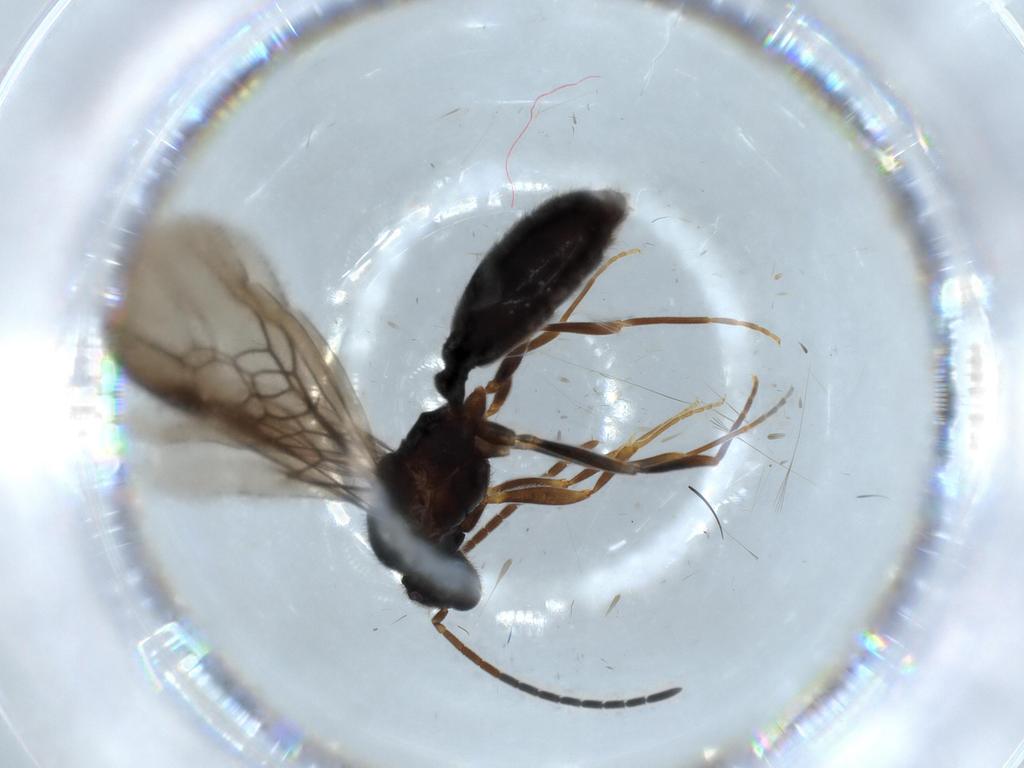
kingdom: Animalia
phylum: Arthropoda
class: Insecta
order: Hymenoptera
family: Formicidae
